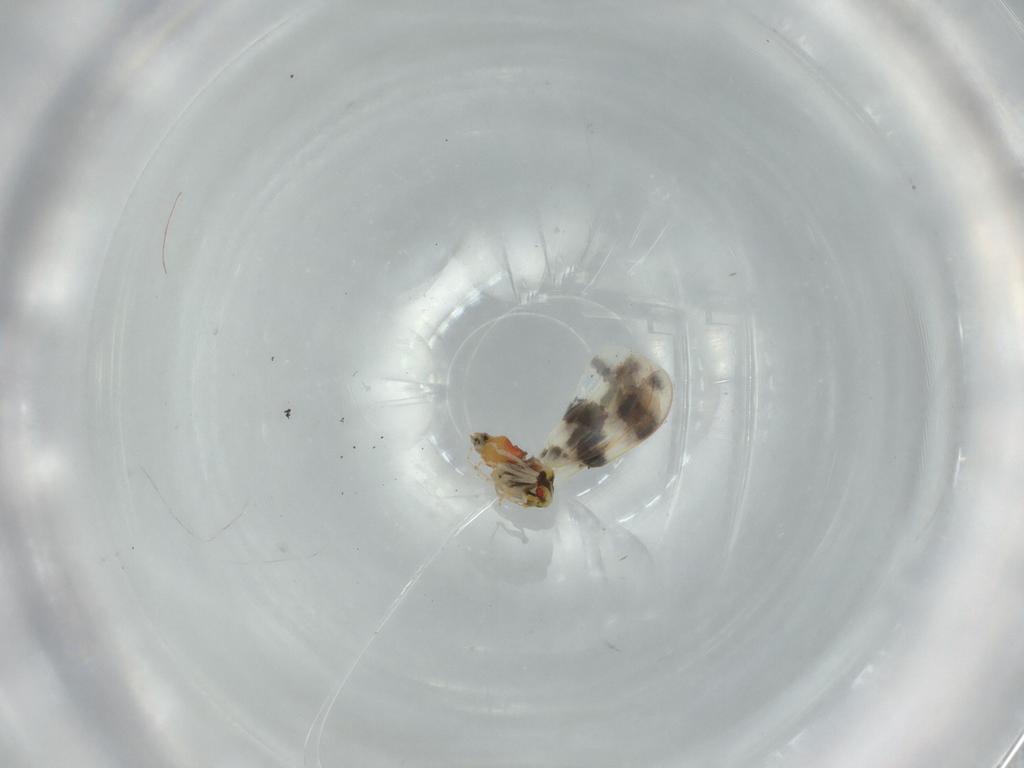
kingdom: Animalia
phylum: Arthropoda
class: Insecta
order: Hemiptera
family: Aleyrodidae
